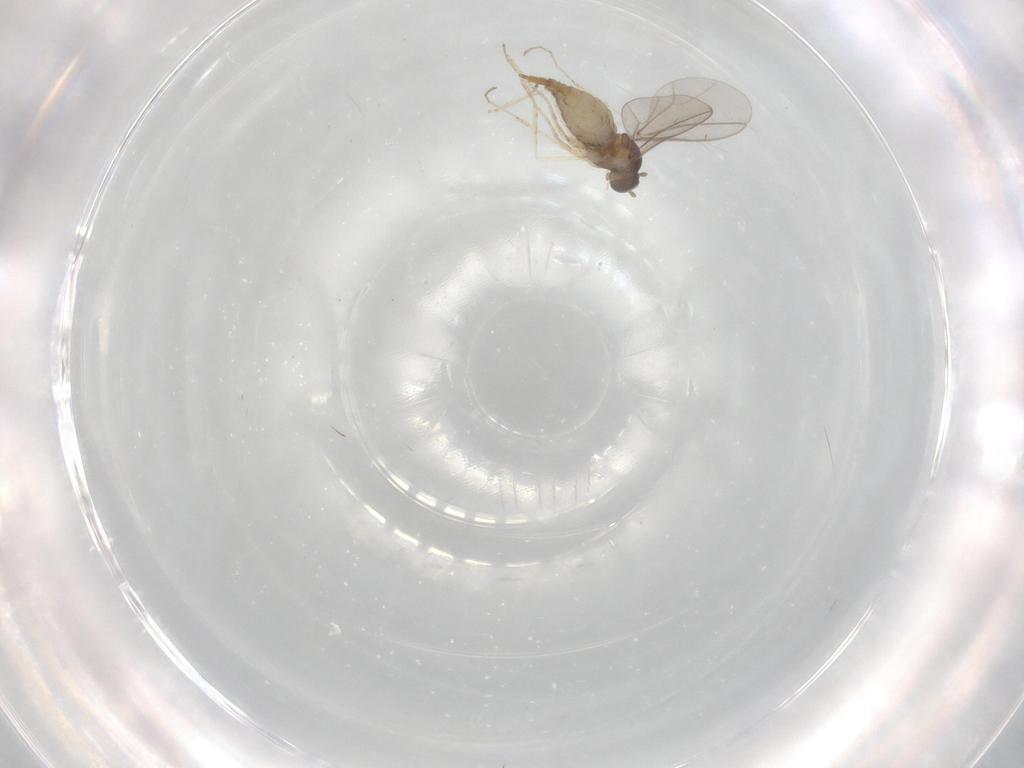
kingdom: Animalia
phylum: Arthropoda
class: Insecta
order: Diptera
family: Cecidomyiidae
